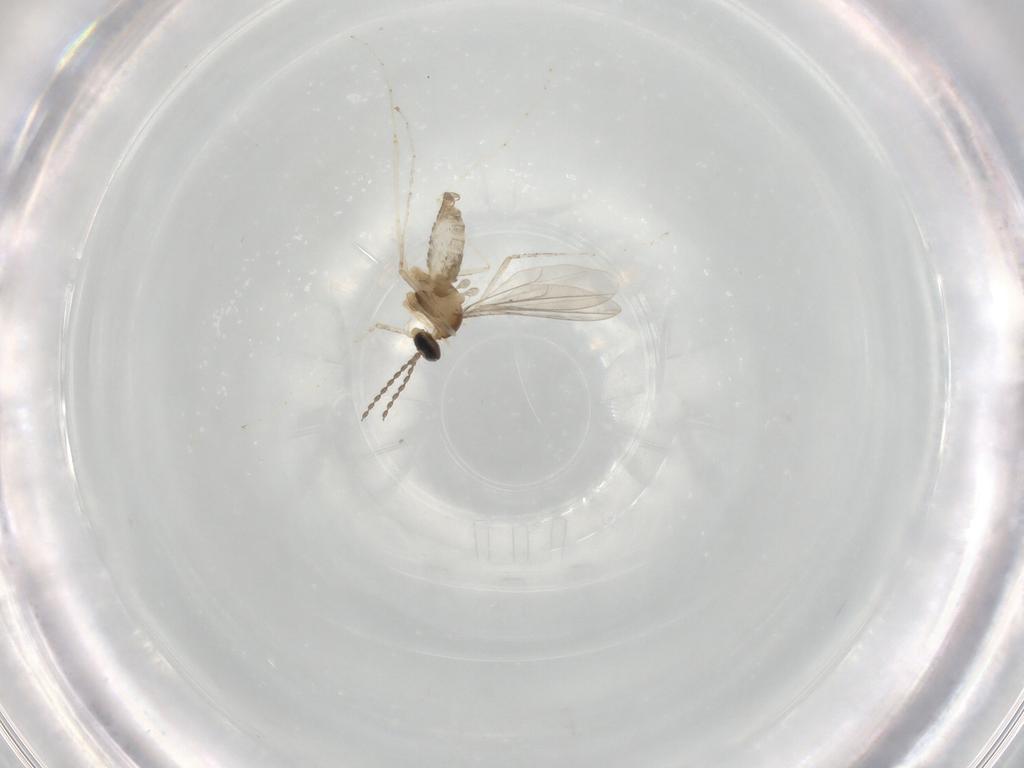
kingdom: Animalia
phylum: Arthropoda
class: Insecta
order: Diptera
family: Cecidomyiidae
